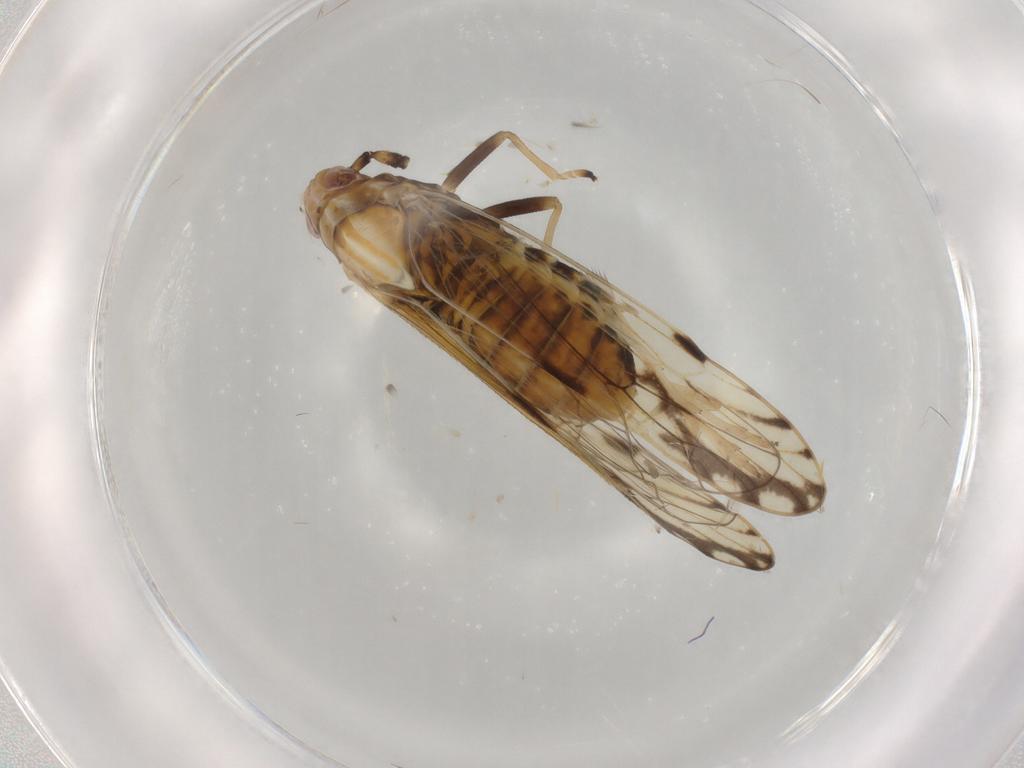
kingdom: Animalia
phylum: Arthropoda
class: Insecta
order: Hemiptera
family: Delphacidae
